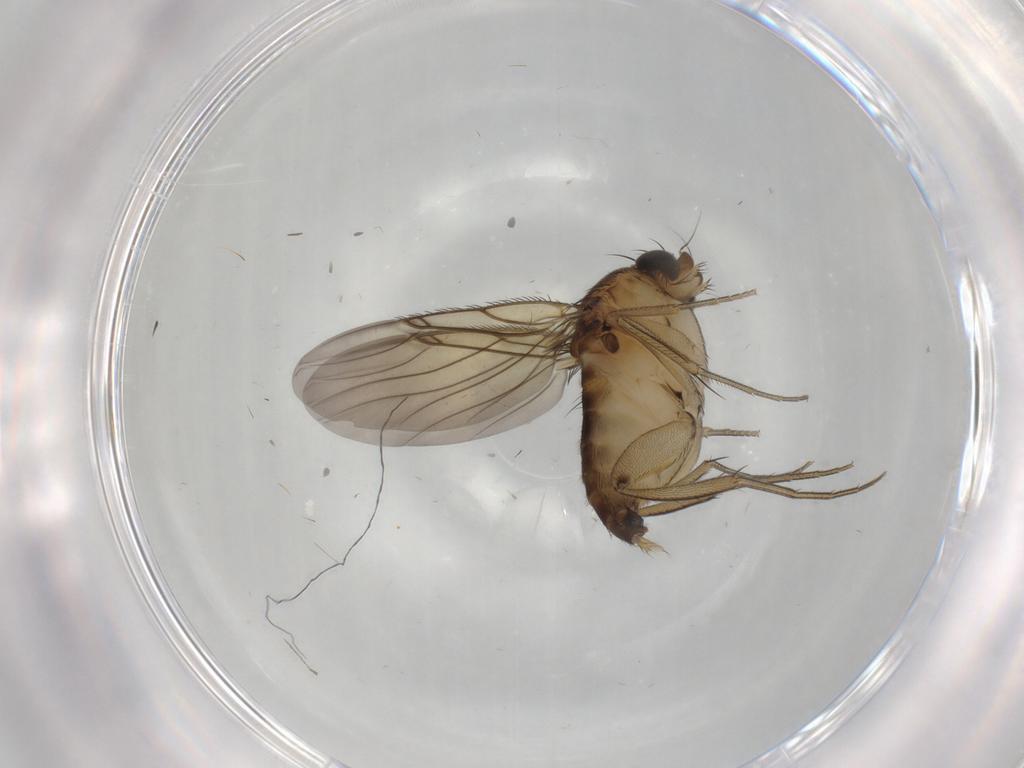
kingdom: Animalia
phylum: Arthropoda
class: Insecta
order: Diptera
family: Phoridae
